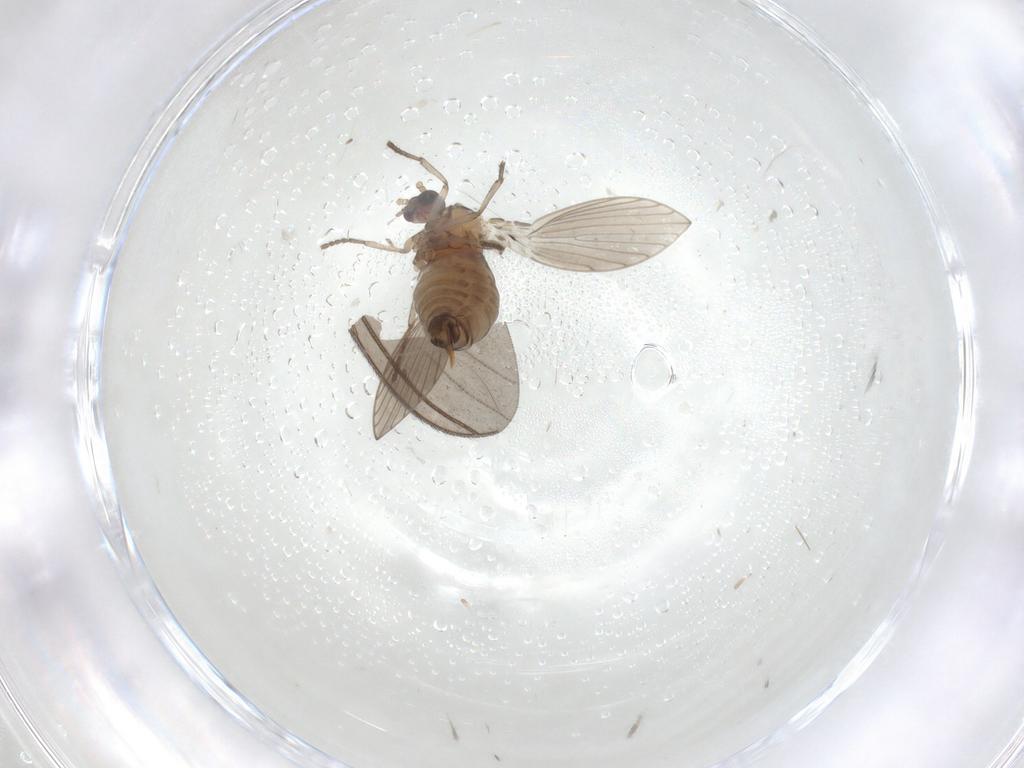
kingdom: Animalia
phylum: Arthropoda
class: Insecta
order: Diptera
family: Psychodidae
